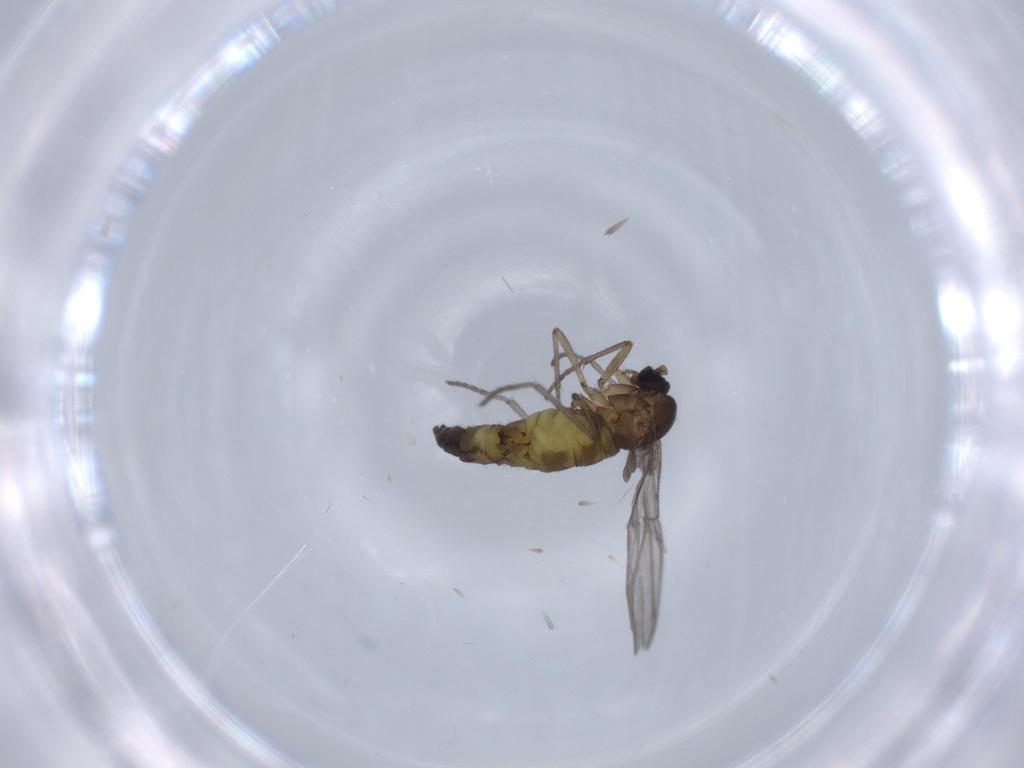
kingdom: Animalia
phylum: Arthropoda
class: Insecta
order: Diptera
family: Sciaridae
